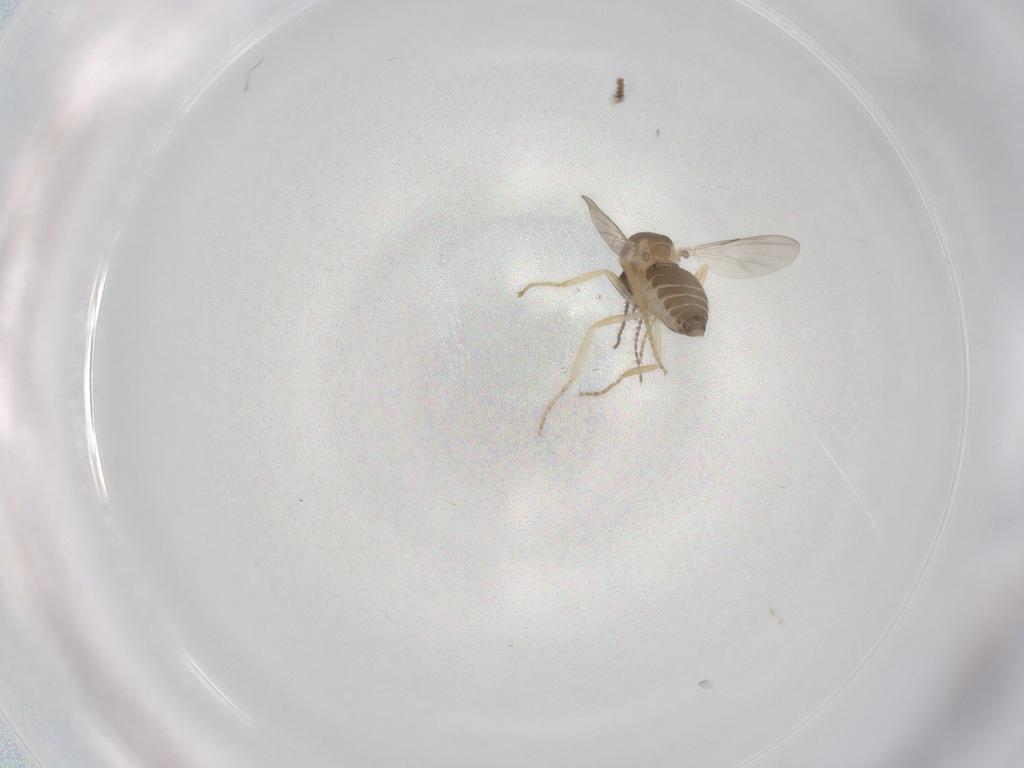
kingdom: Animalia
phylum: Arthropoda
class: Insecta
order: Diptera
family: Ceratopogonidae
